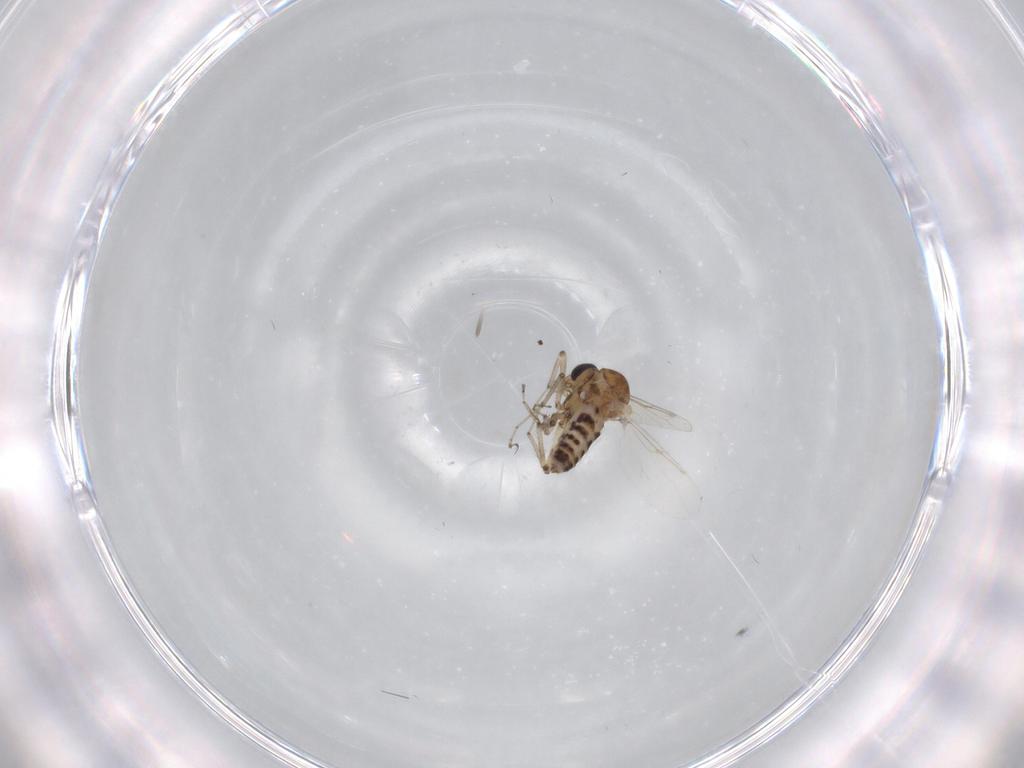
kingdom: Animalia
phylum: Arthropoda
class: Insecta
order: Diptera
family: Ceratopogonidae
